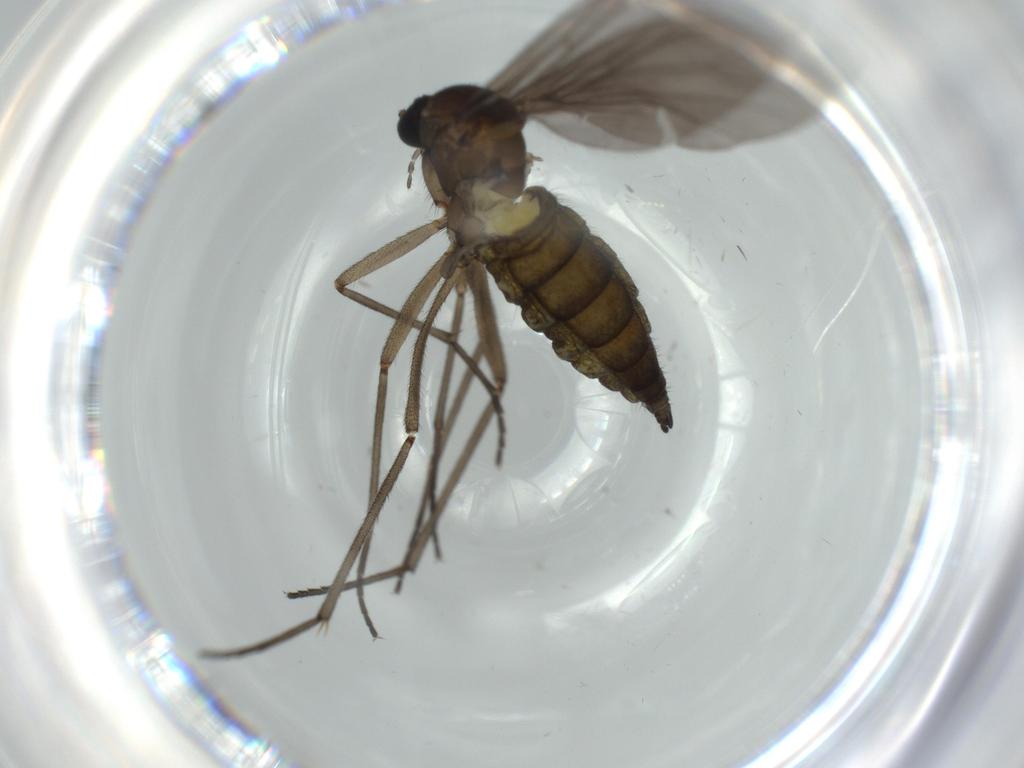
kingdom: Animalia
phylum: Arthropoda
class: Insecta
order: Diptera
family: Sciaridae
